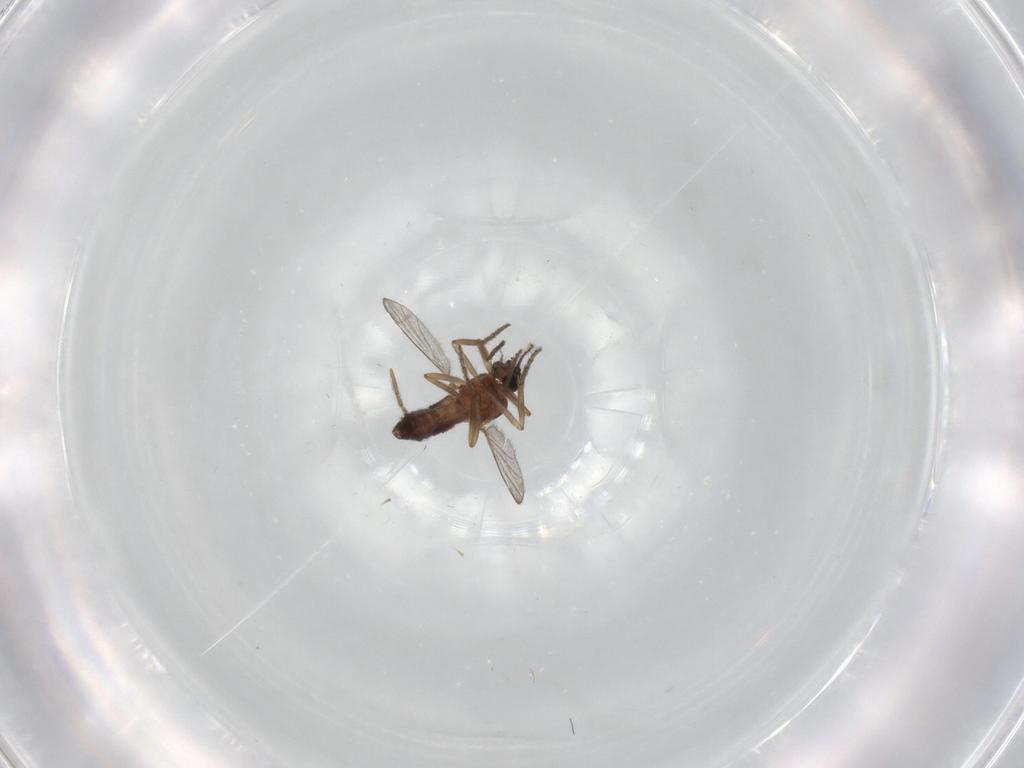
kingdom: Animalia
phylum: Arthropoda
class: Insecta
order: Diptera
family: Ceratopogonidae
